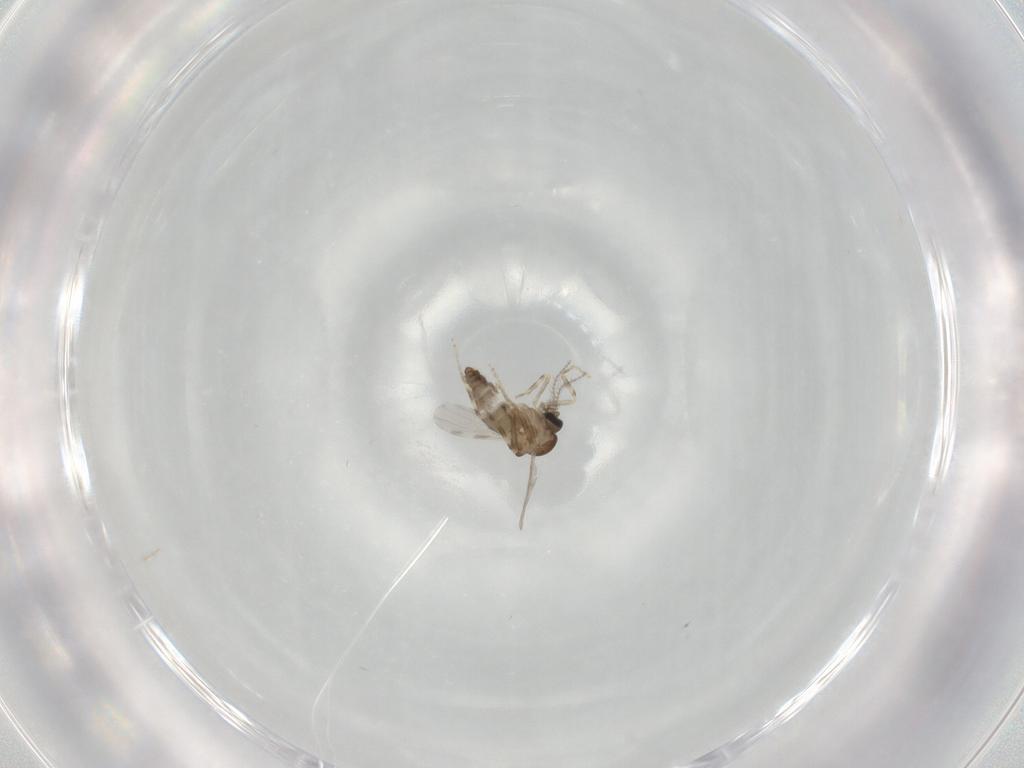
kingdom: Animalia
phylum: Arthropoda
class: Insecta
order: Diptera
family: Ceratopogonidae
